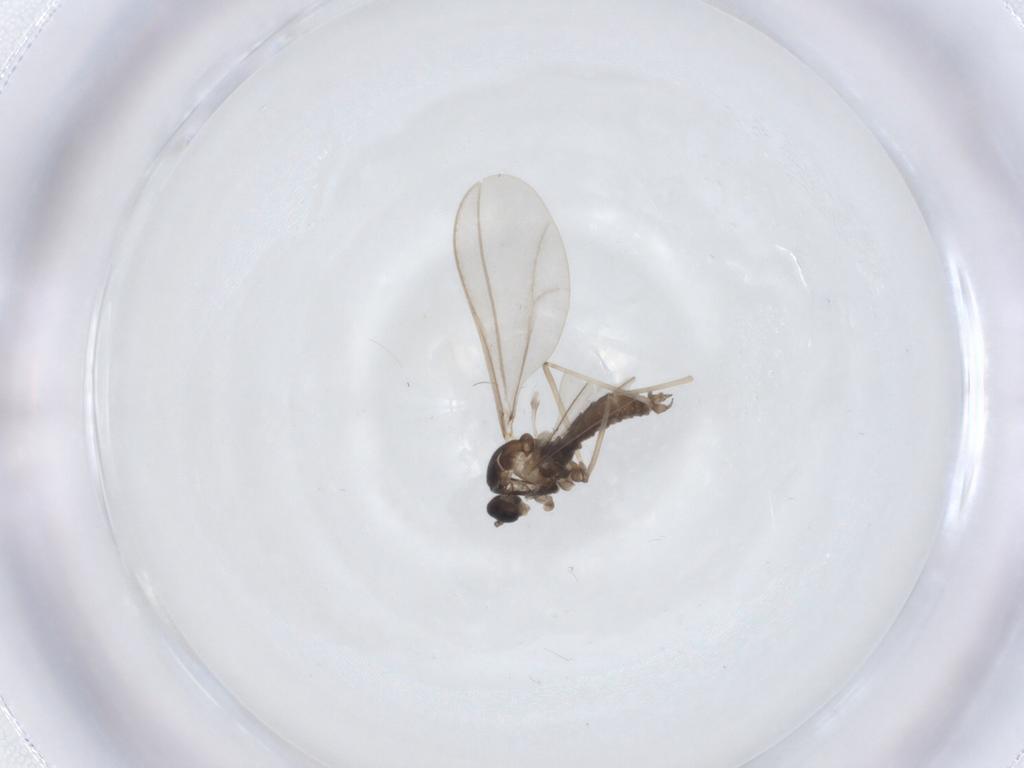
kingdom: Animalia
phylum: Arthropoda
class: Insecta
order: Diptera
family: Cecidomyiidae
